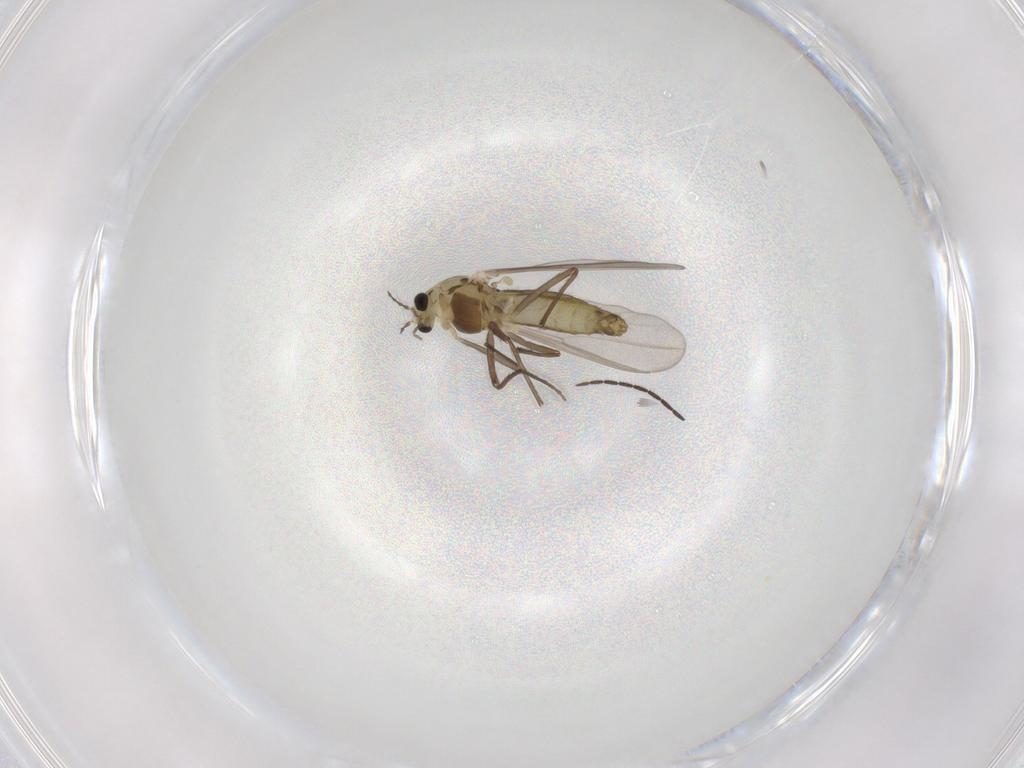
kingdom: Animalia
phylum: Arthropoda
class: Insecta
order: Diptera
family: Chironomidae
